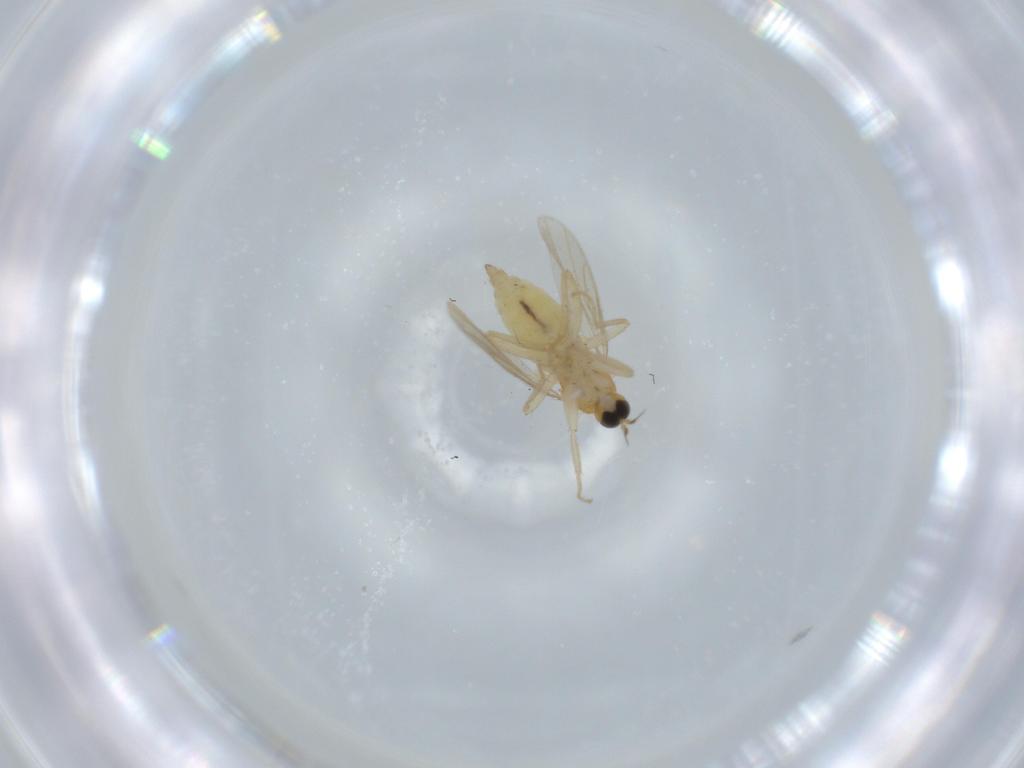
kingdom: Animalia
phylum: Arthropoda
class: Insecta
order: Diptera
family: Hybotidae
